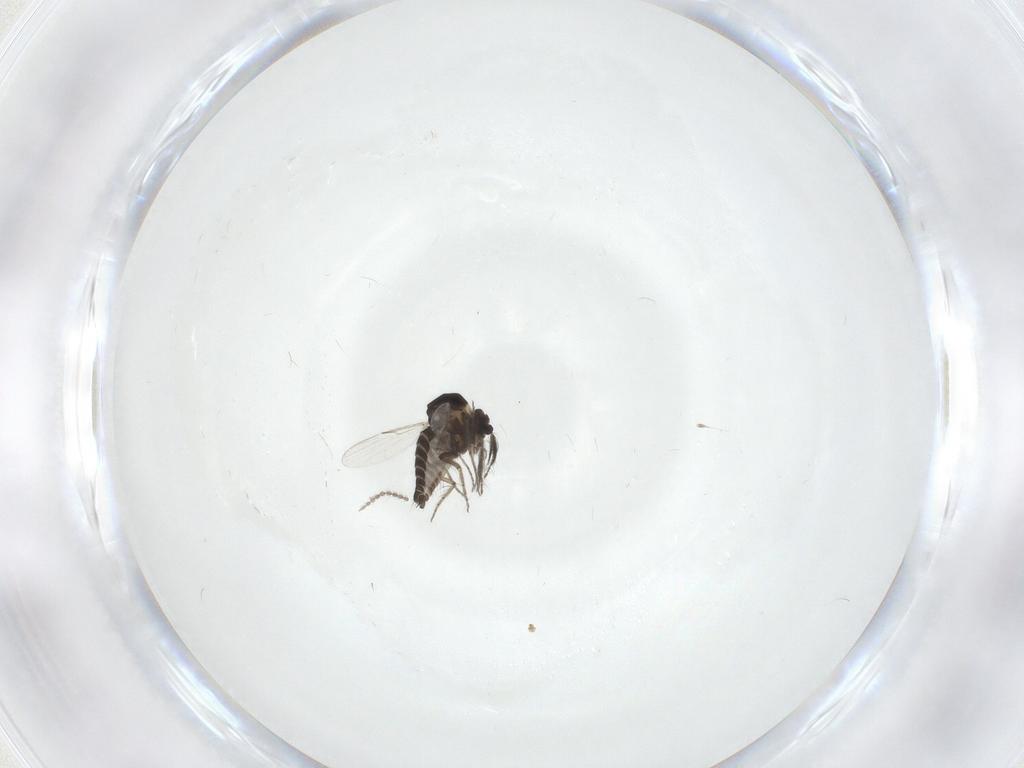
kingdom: Animalia
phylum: Arthropoda
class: Insecta
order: Diptera
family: Ceratopogonidae
